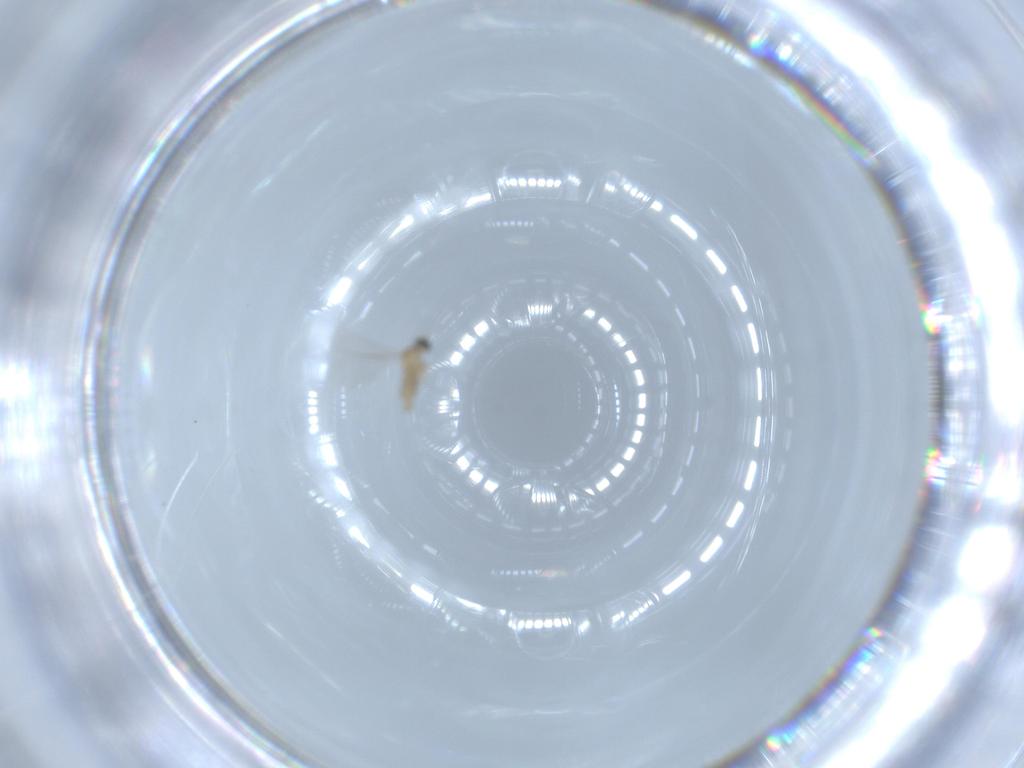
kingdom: Animalia
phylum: Arthropoda
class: Insecta
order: Diptera
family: Cecidomyiidae
